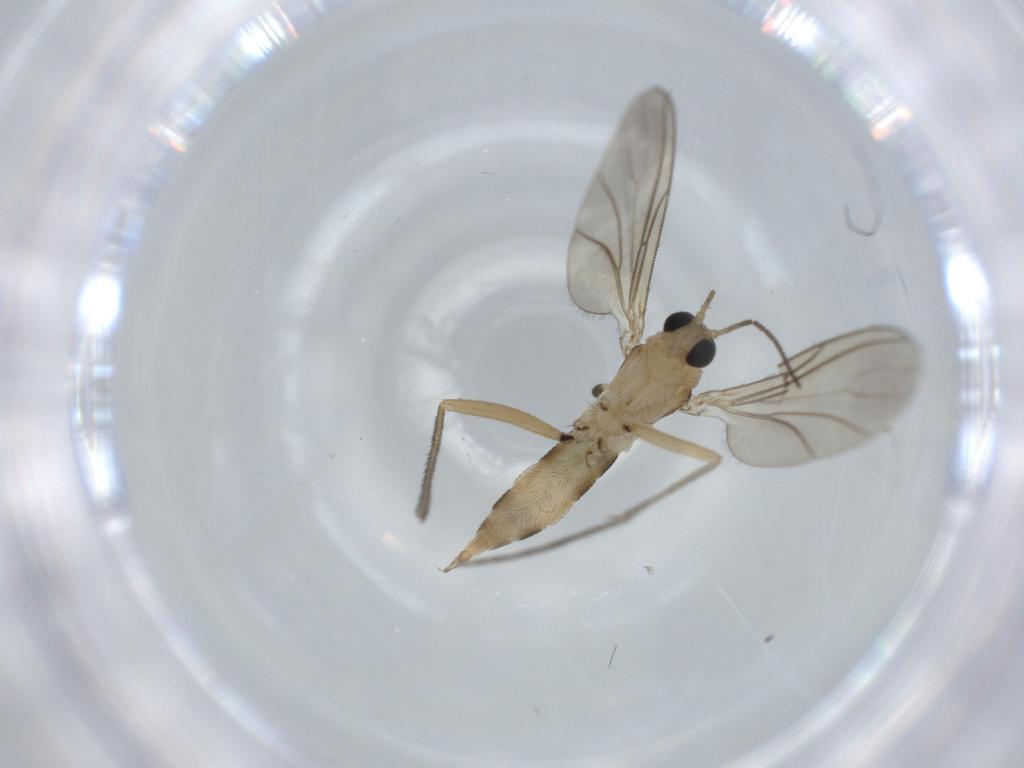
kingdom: Animalia
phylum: Arthropoda
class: Insecta
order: Diptera
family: Sciaridae
